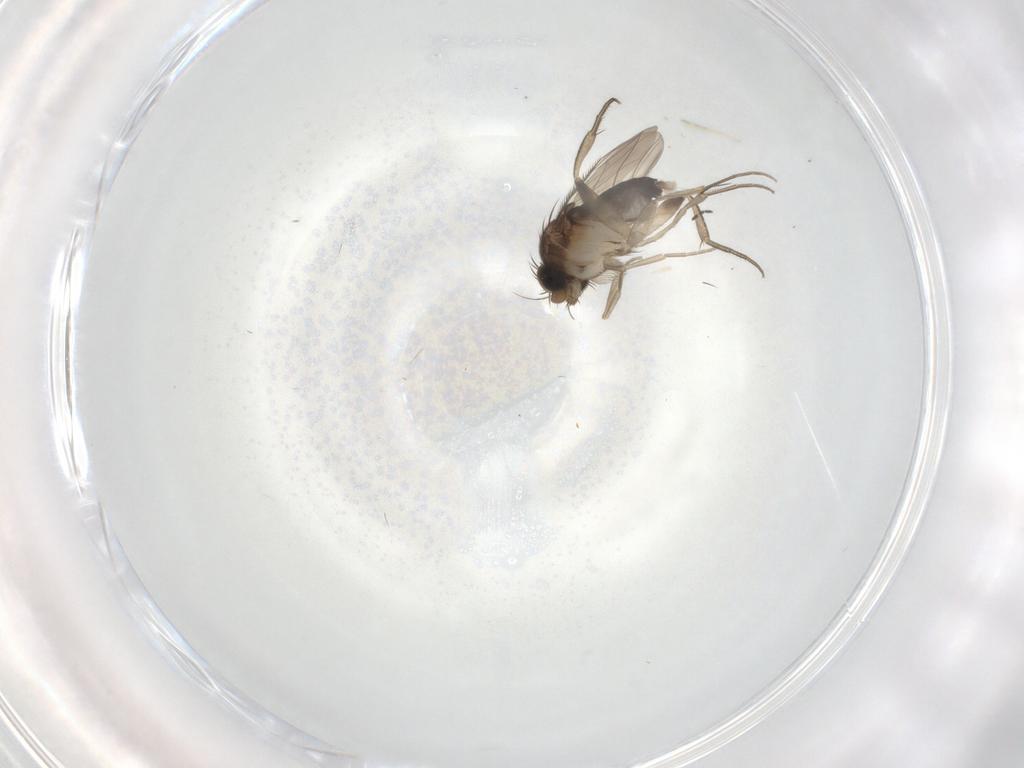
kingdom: Animalia
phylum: Arthropoda
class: Insecta
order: Diptera
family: Phoridae
